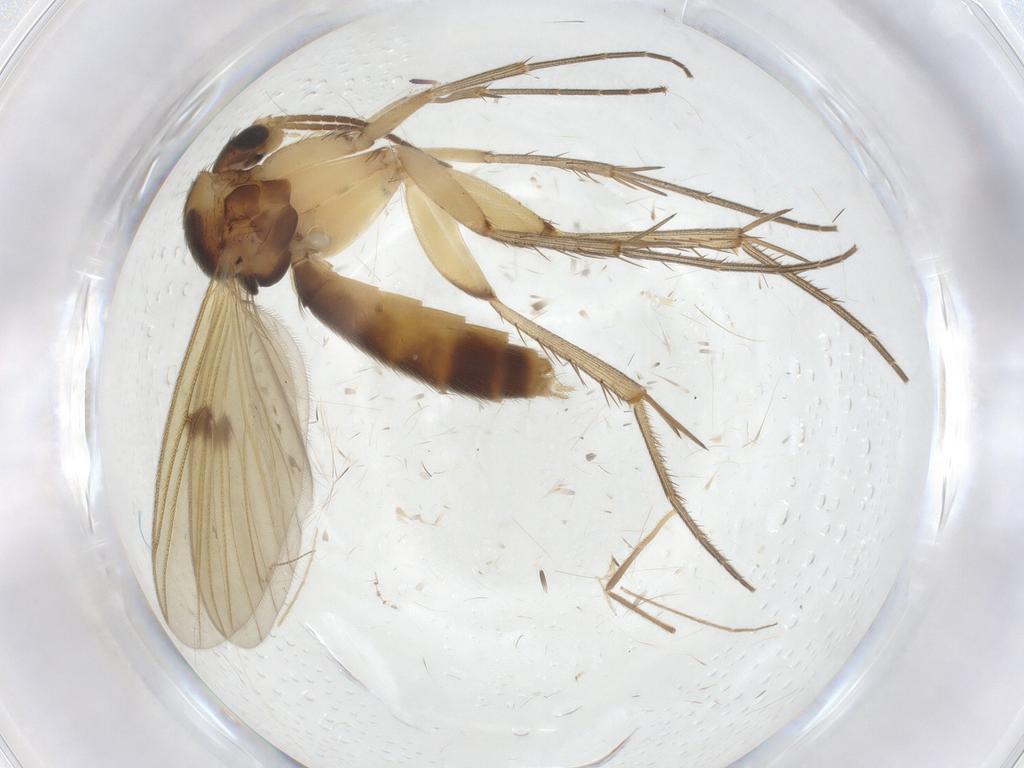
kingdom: Animalia
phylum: Arthropoda
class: Insecta
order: Diptera
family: Mycetophilidae
